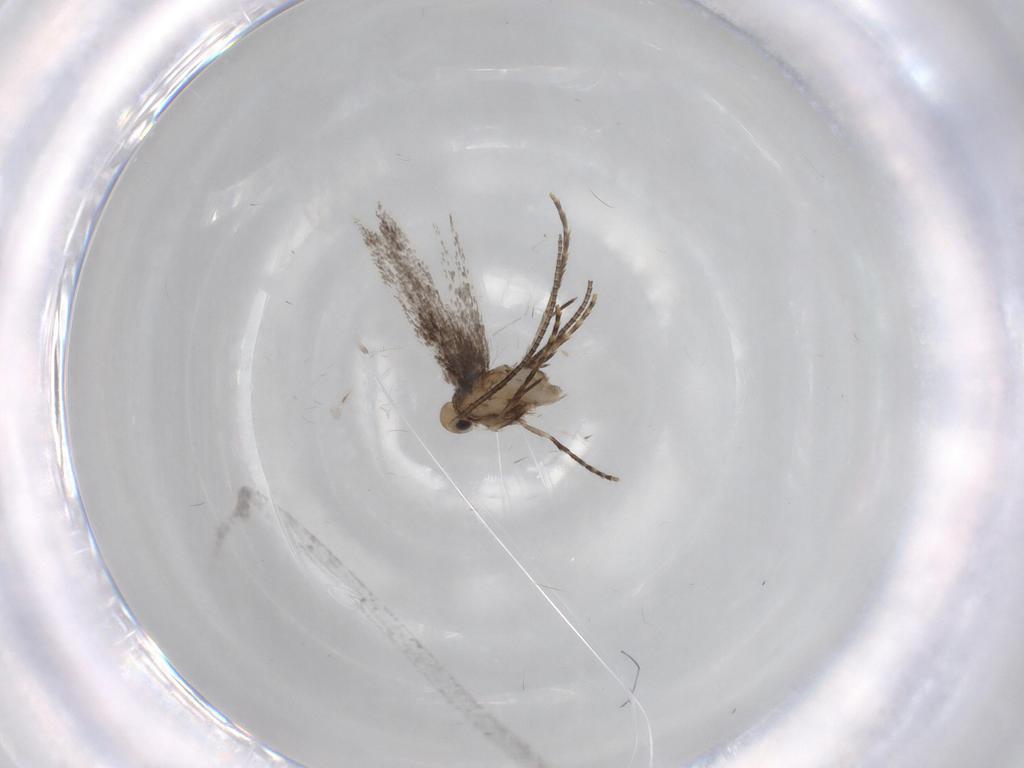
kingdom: Animalia
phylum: Arthropoda
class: Insecta
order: Lepidoptera
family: Gracillariidae
